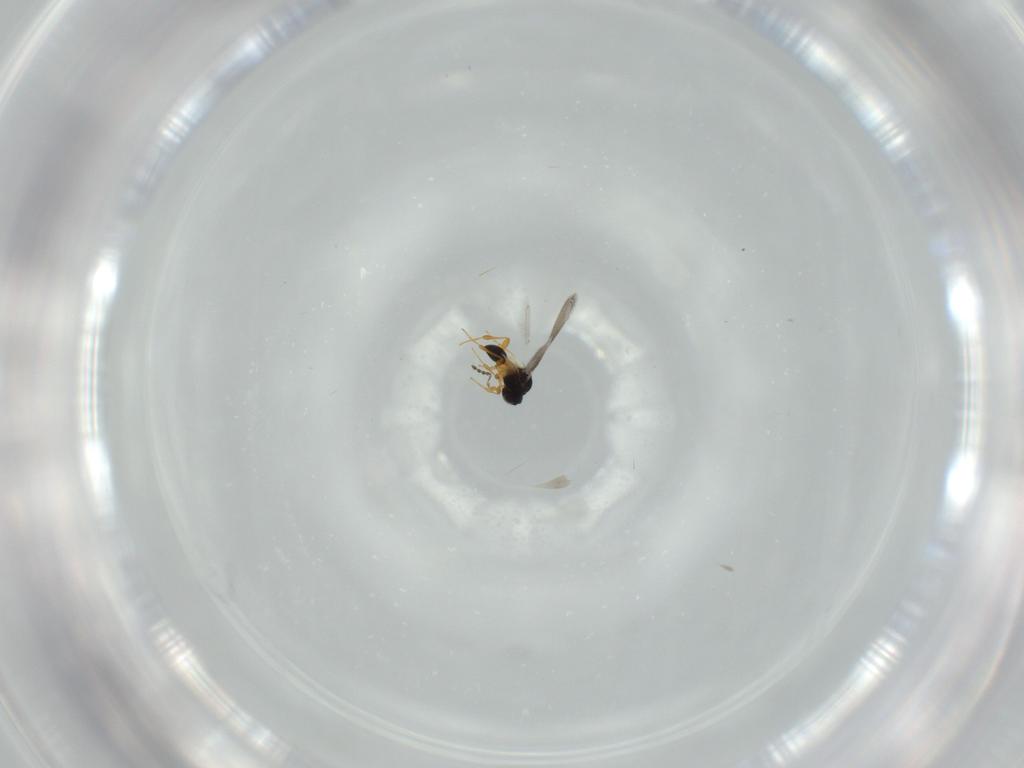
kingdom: Animalia
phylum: Arthropoda
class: Insecta
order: Hymenoptera
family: Platygastridae
